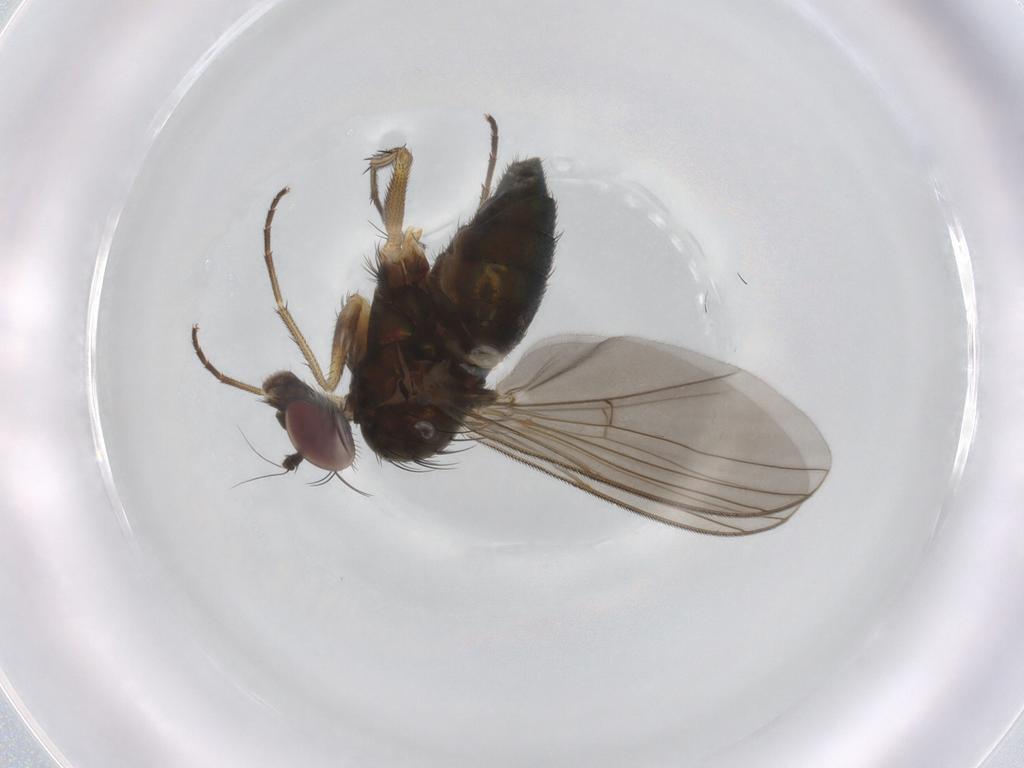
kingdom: Animalia
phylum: Arthropoda
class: Insecta
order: Diptera
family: Dolichopodidae
